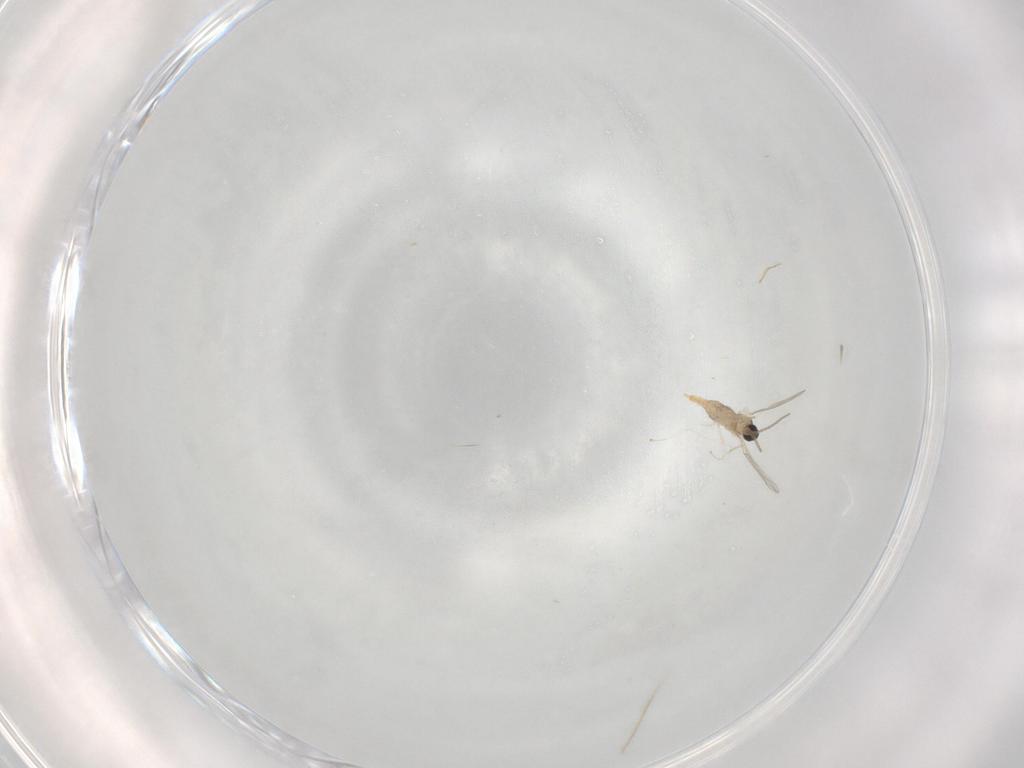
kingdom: Animalia
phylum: Arthropoda
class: Insecta
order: Diptera
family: Cecidomyiidae
